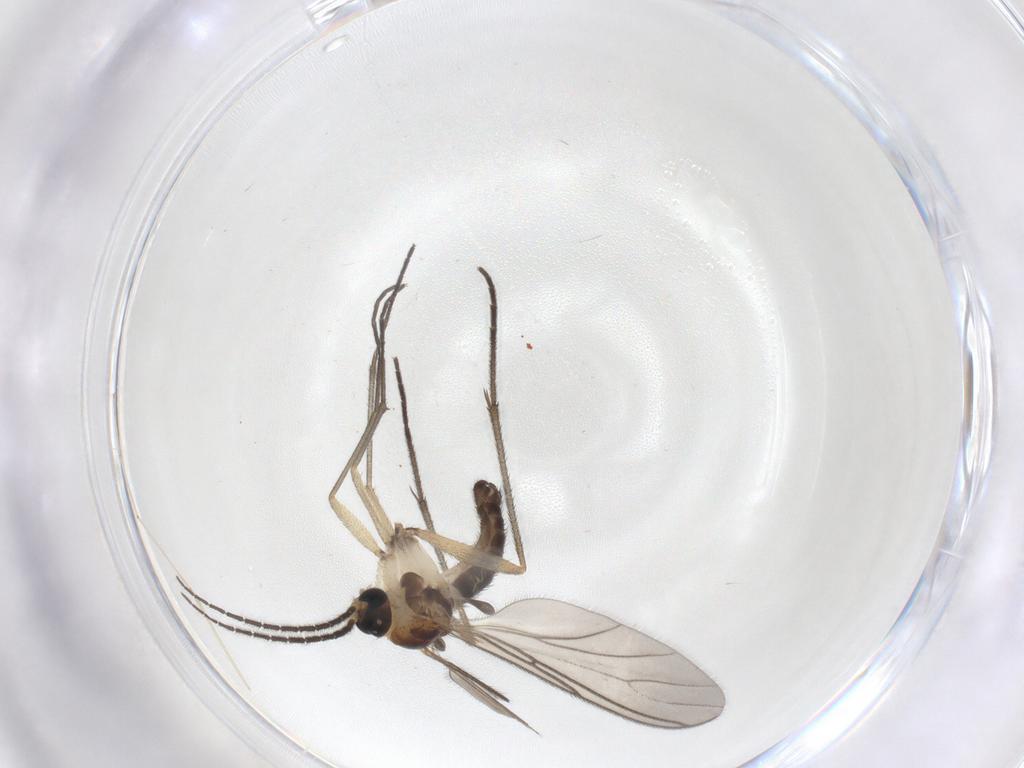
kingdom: Animalia
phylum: Arthropoda
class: Insecta
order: Diptera
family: Sciaridae
